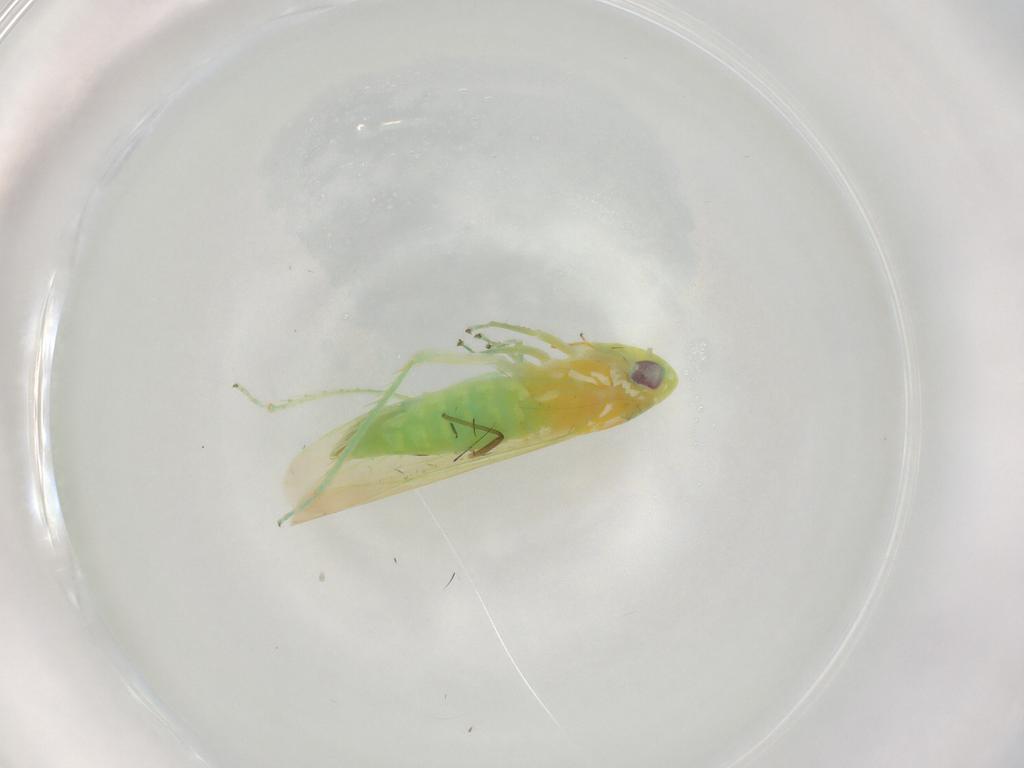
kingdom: Animalia
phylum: Arthropoda
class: Insecta
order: Hemiptera
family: Cicadellidae
